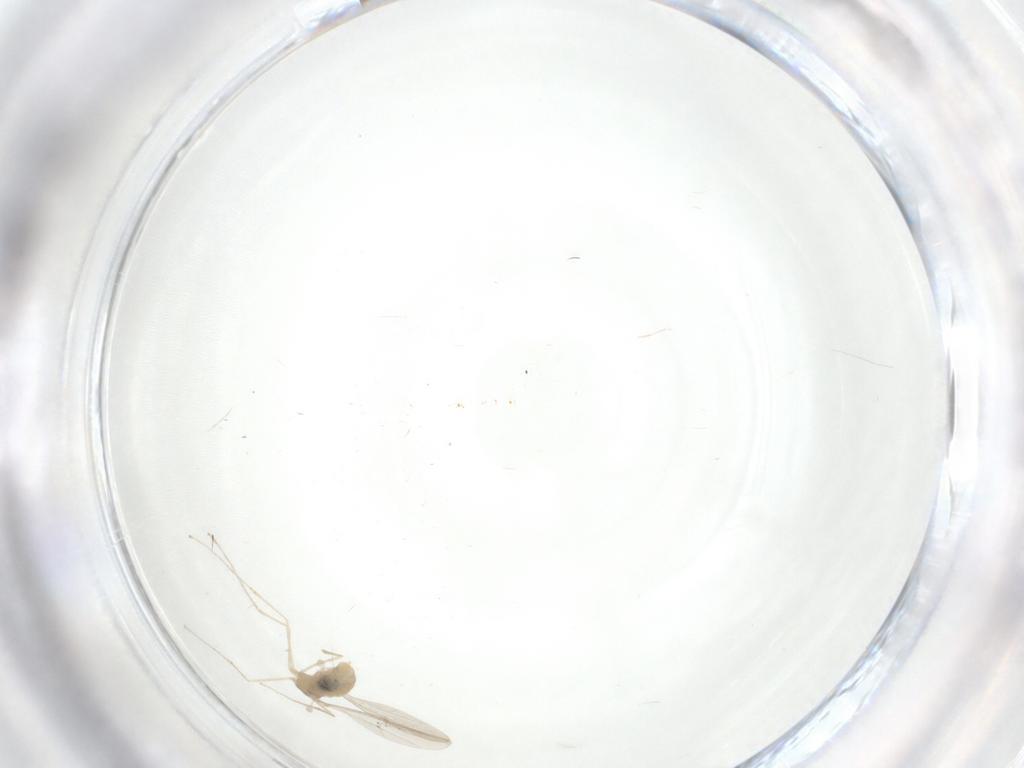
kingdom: Animalia
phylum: Arthropoda
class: Insecta
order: Diptera
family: Cecidomyiidae
